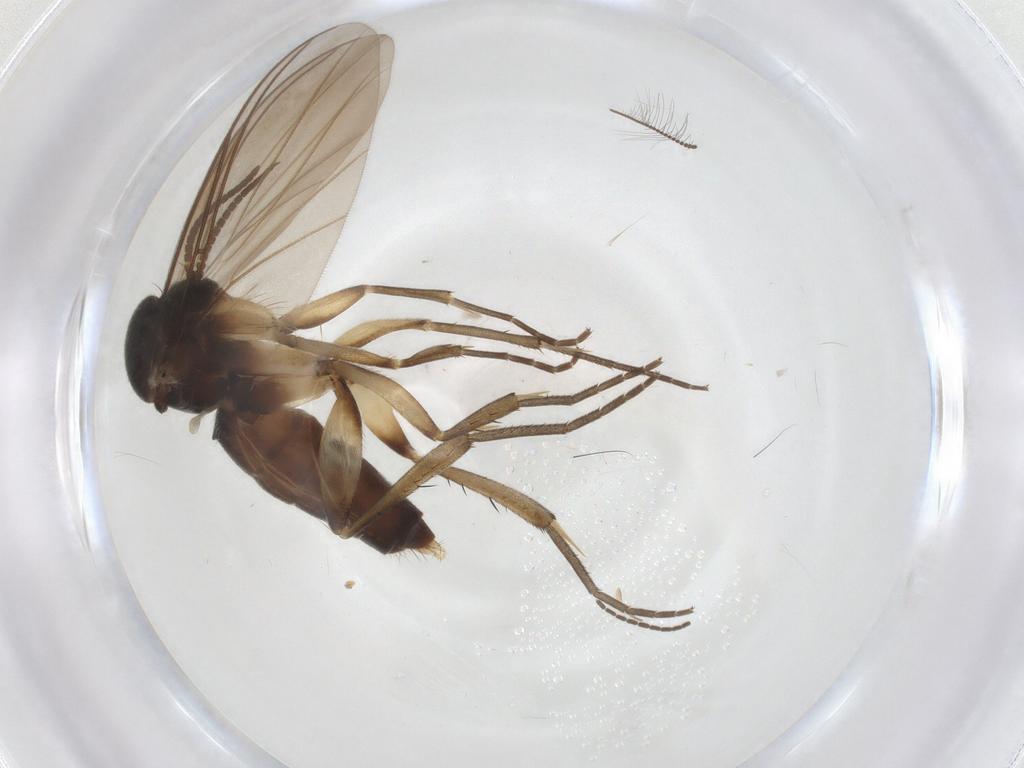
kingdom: Animalia
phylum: Arthropoda
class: Insecta
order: Diptera
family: Mycetophilidae
